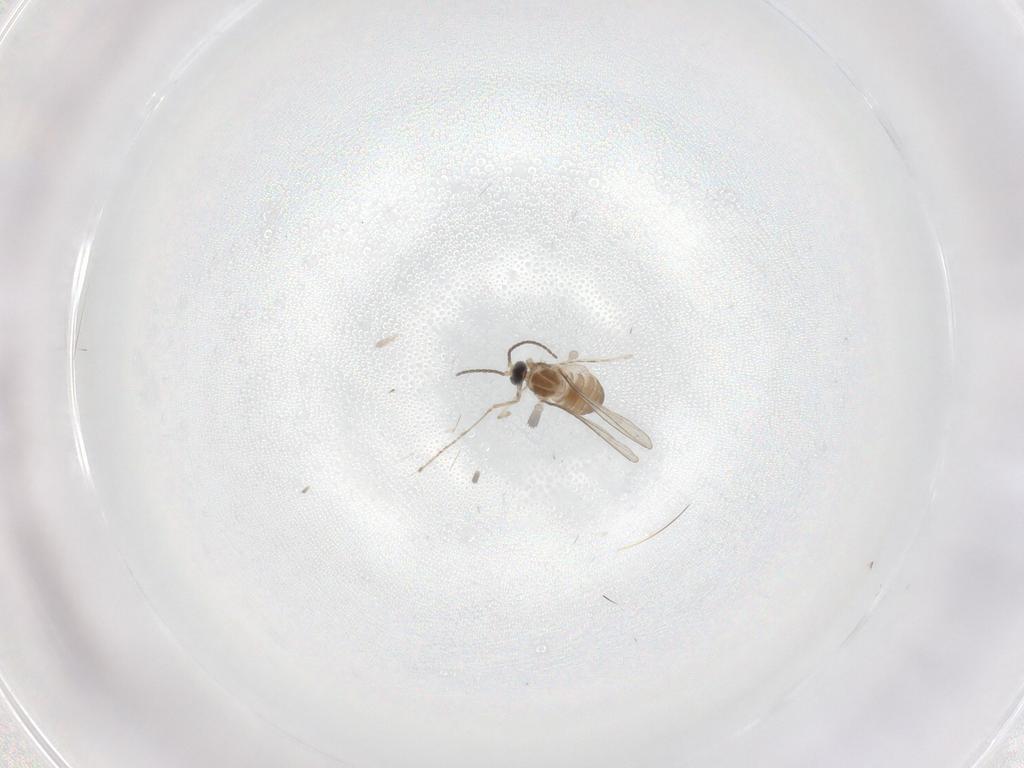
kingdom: Animalia
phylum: Arthropoda
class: Insecta
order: Diptera
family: Cecidomyiidae
